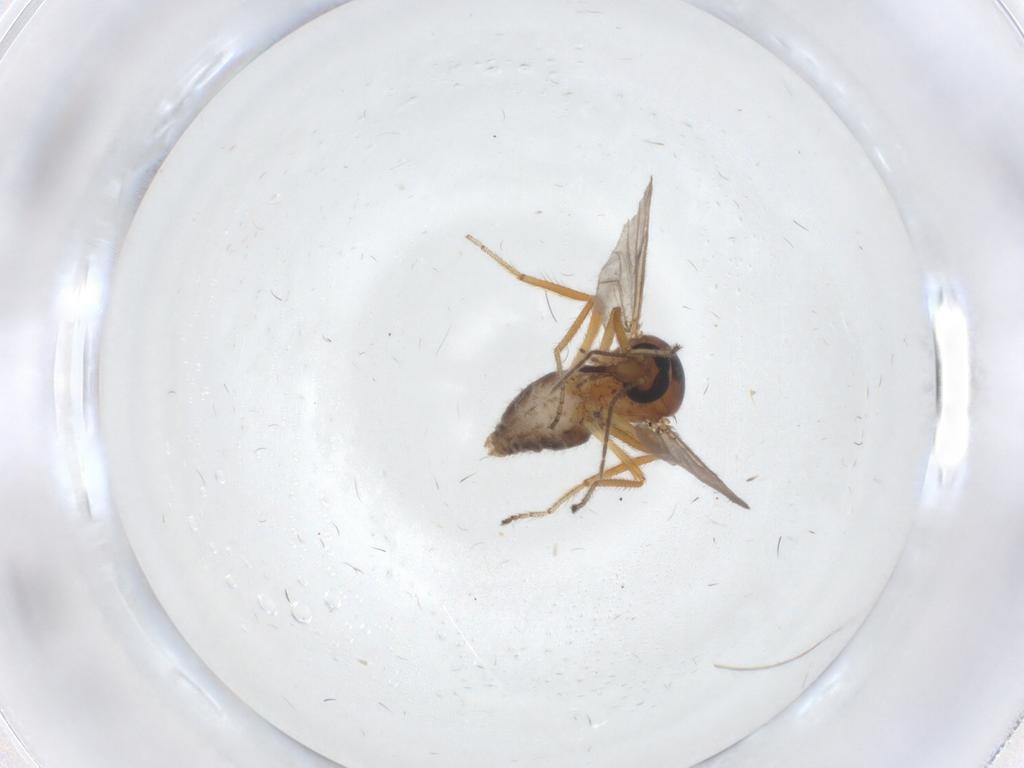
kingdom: Animalia
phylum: Arthropoda
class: Insecta
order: Diptera
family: Ceratopogonidae
